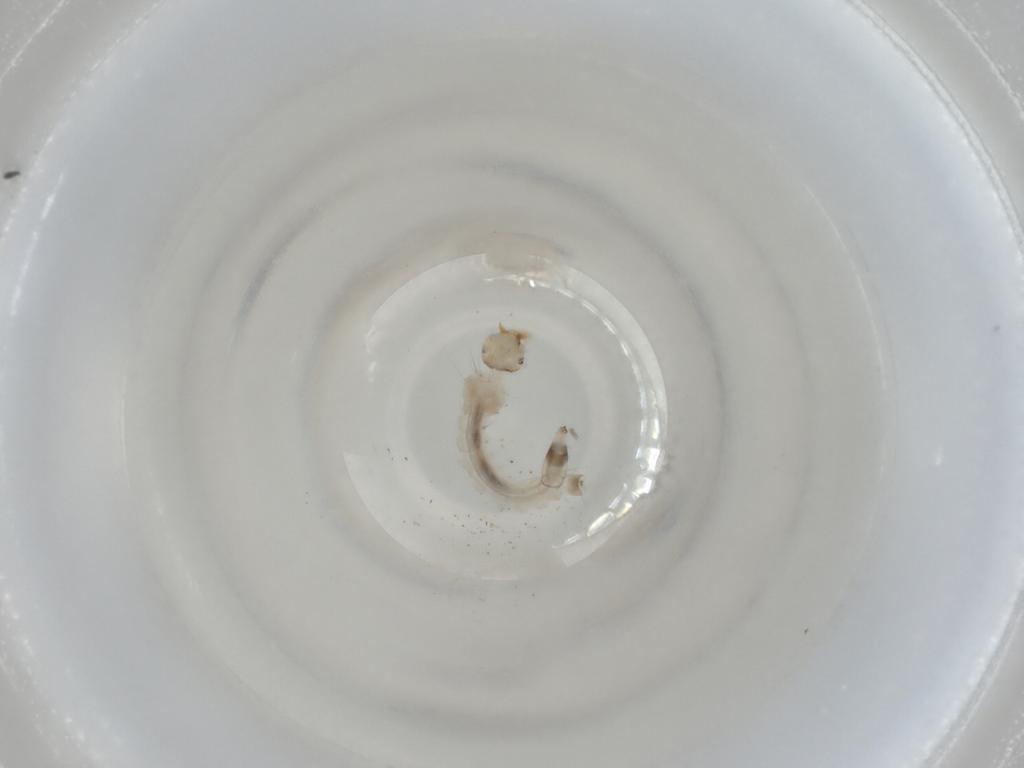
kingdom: Animalia
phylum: Arthropoda
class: Insecta
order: Diptera
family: Culicidae
